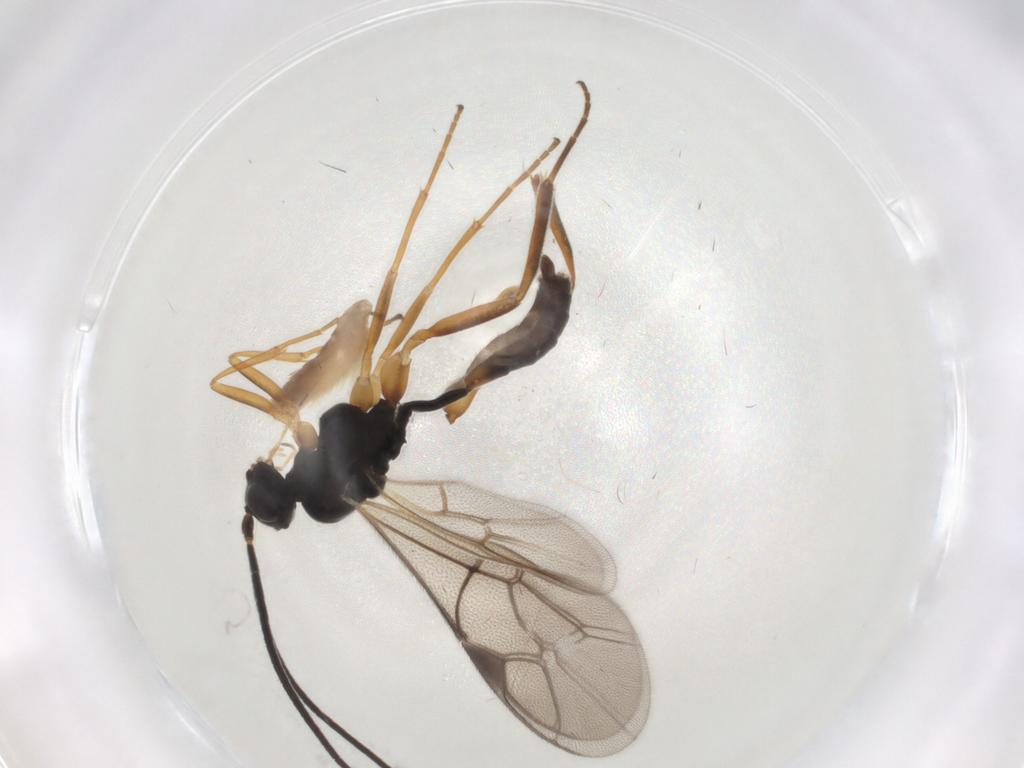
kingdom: Animalia
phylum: Arthropoda
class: Insecta
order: Hymenoptera
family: Ichneumonidae
